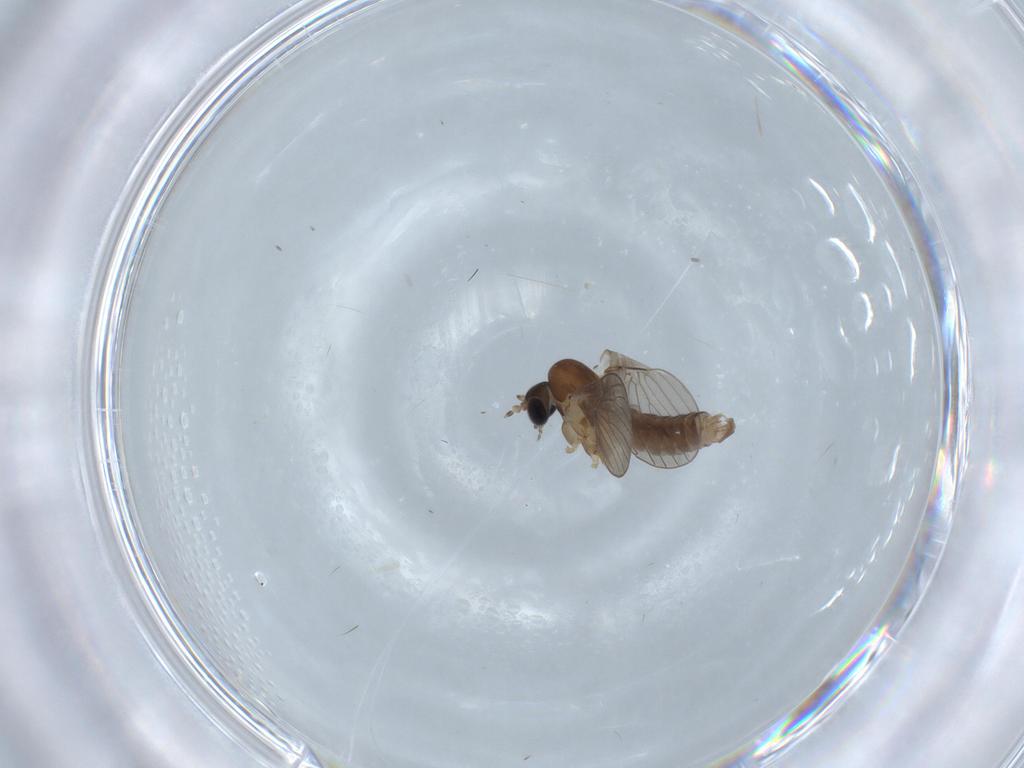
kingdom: Animalia
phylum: Arthropoda
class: Insecta
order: Diptera
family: Psychodidae
